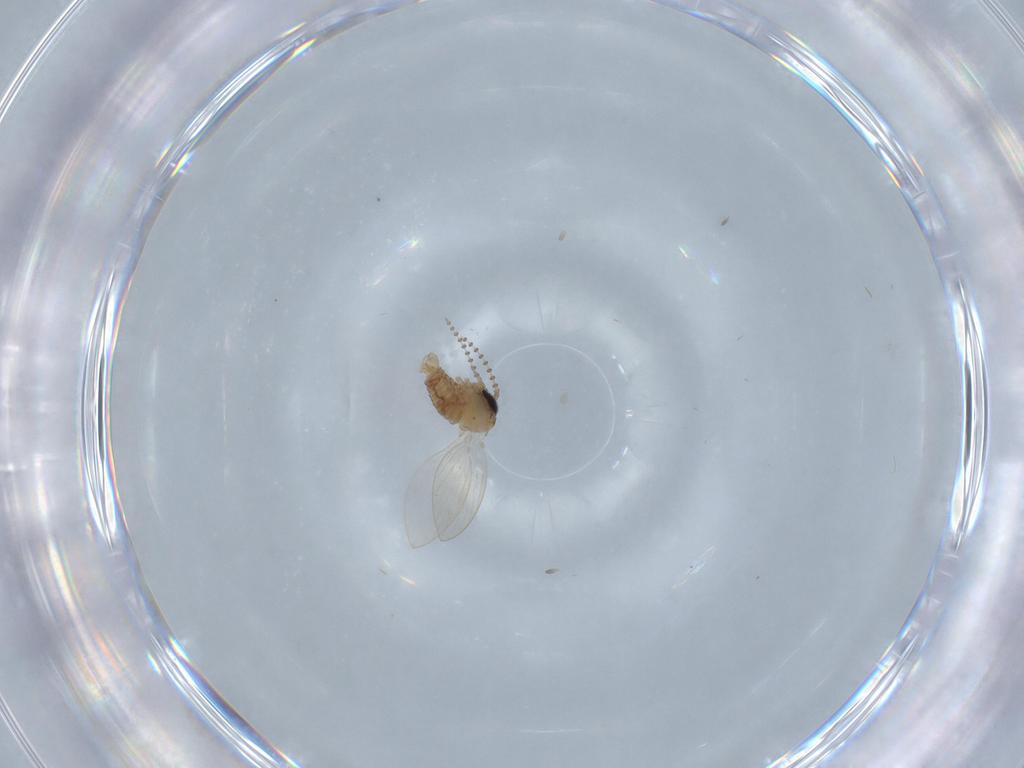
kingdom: Animalia
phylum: Arthropoda
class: Insecta
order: Diptera
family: Psychodidae
